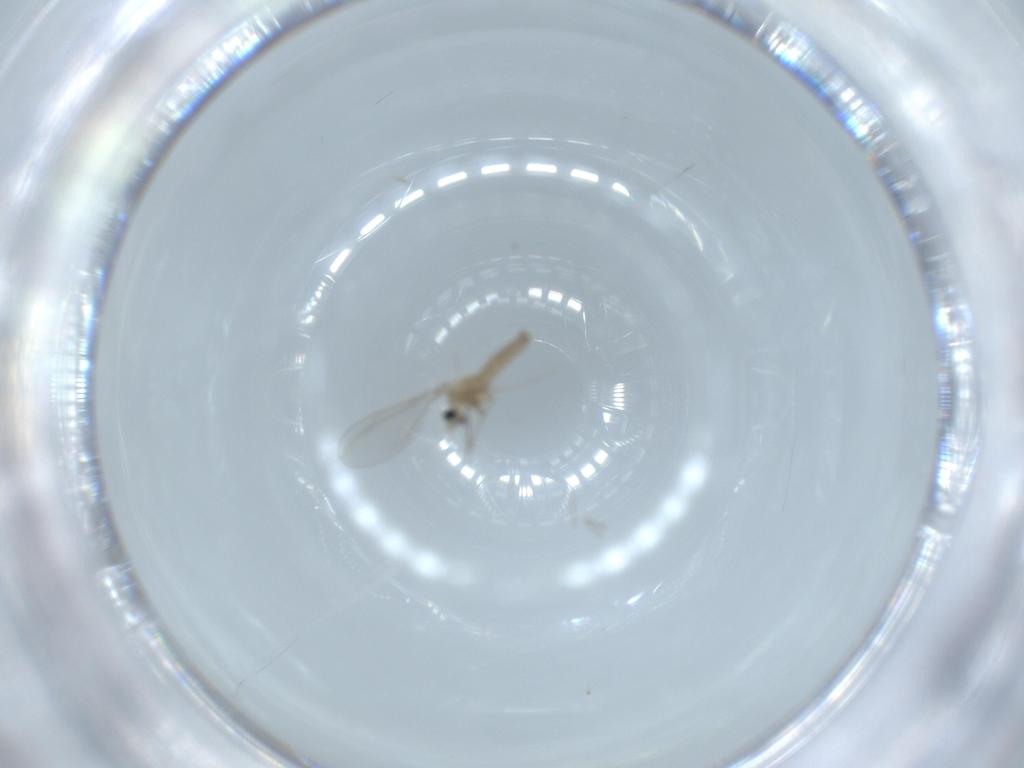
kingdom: Animalia
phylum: Arthropoda
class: Insecta
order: Diptera
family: Cecidomyiidae
